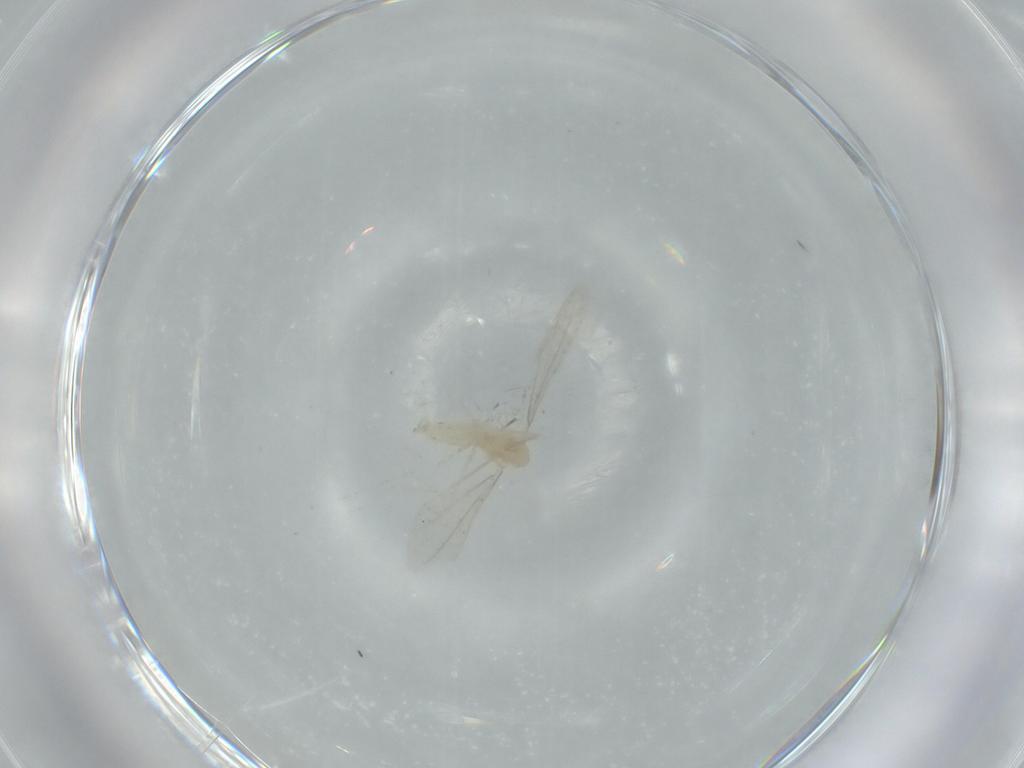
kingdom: Animalia
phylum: Arthropoda
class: Insecta
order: Diptera
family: Cecidomyiidae
